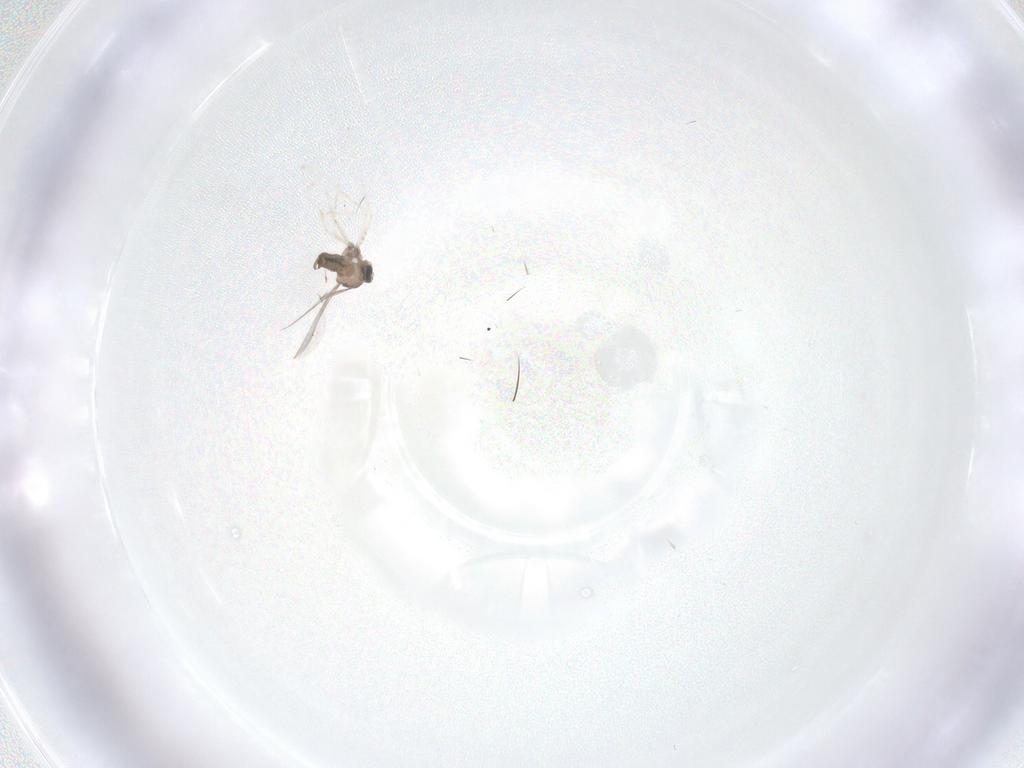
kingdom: Animalia
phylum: Arthropoda
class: Insecta
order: Diptera
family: Cecidomyiidae
